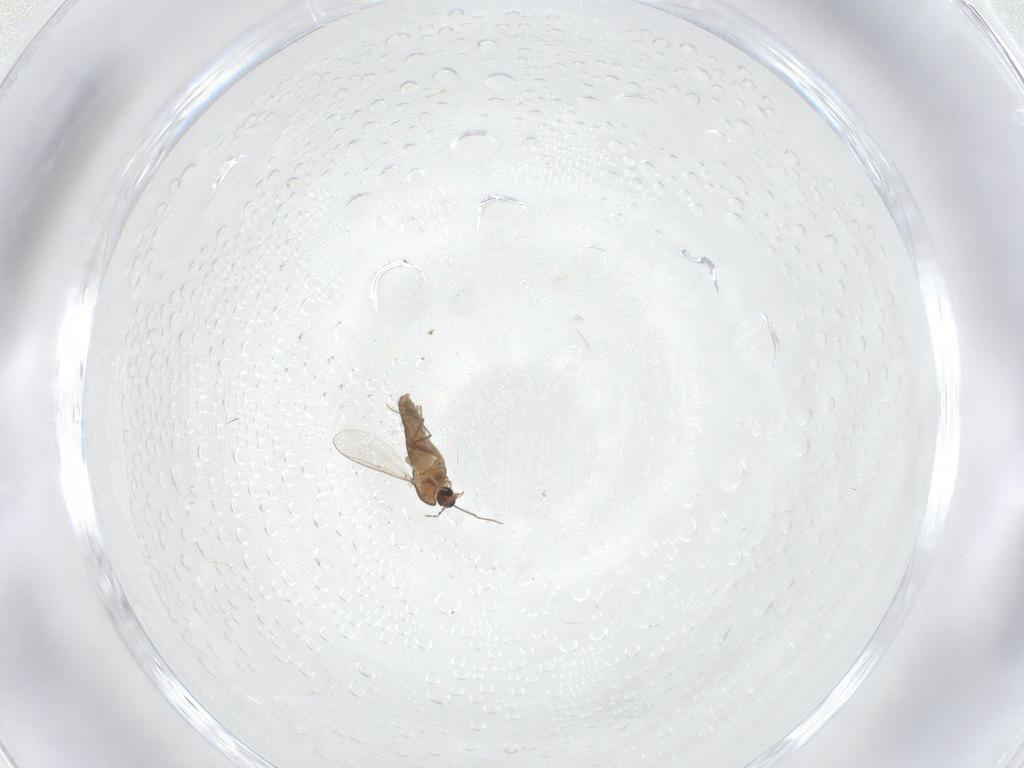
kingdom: Animalia
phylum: Arthropoda
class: Insecta
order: Diptera
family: Chironomidae
